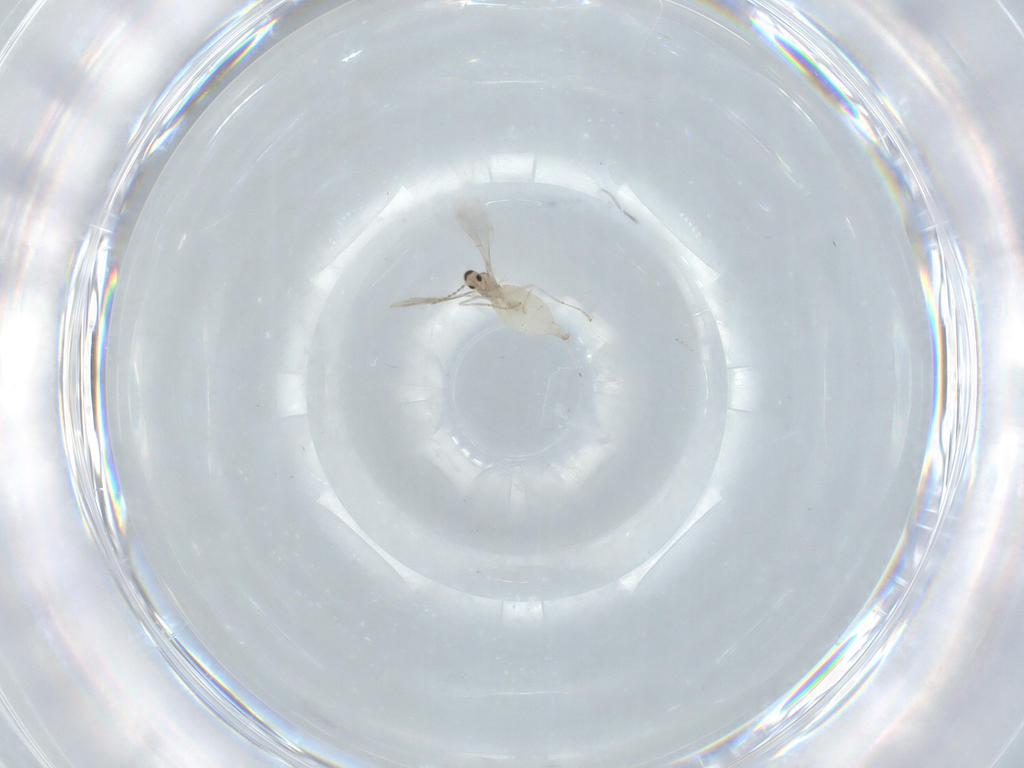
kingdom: Animalia
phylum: Arthropoda
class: Insecta
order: Diptera
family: Cecidomyiidae
